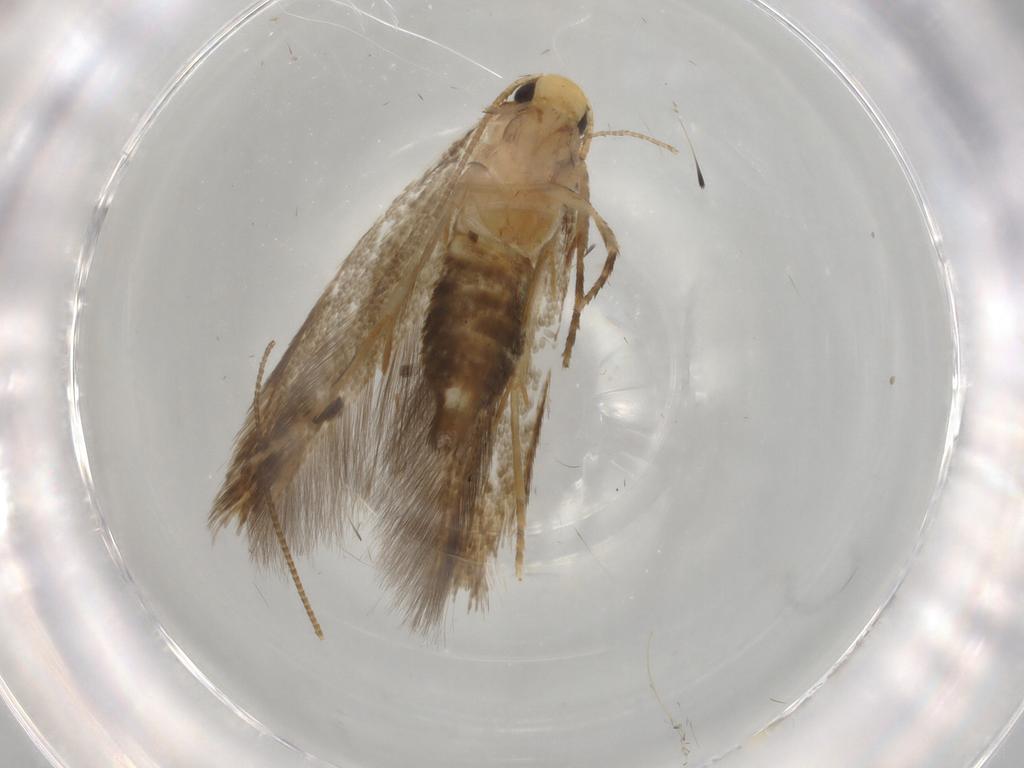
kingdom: Animalia
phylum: Arthropoda
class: Insecta
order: Lepidoptera
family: Tineidae
